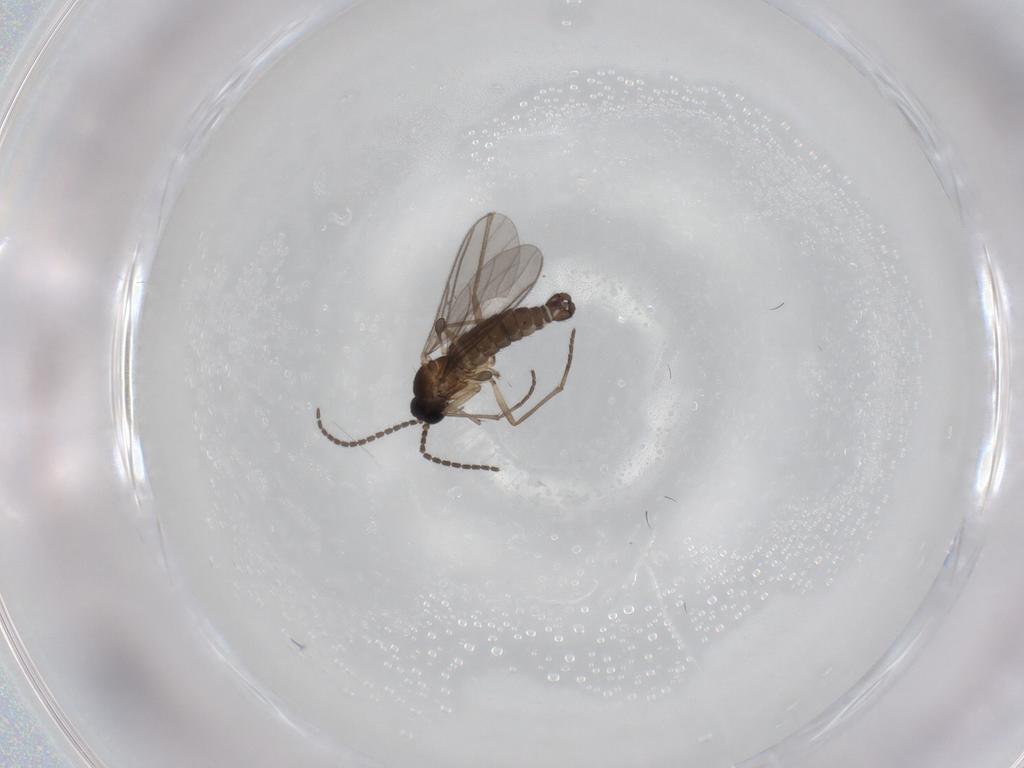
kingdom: Animalia
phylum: Arthropoda
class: Insecta
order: Diptera
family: Sciaridae
